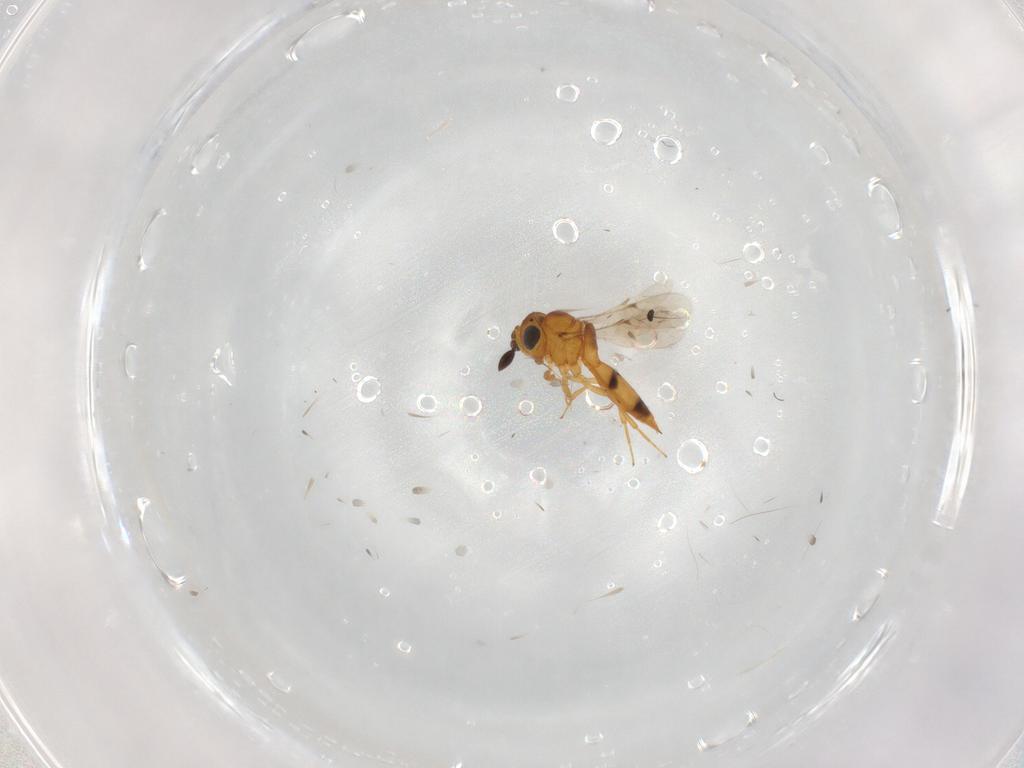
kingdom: Animalia
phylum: Arthropoda
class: Insecta
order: Hymenoptera
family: Scelionidae
